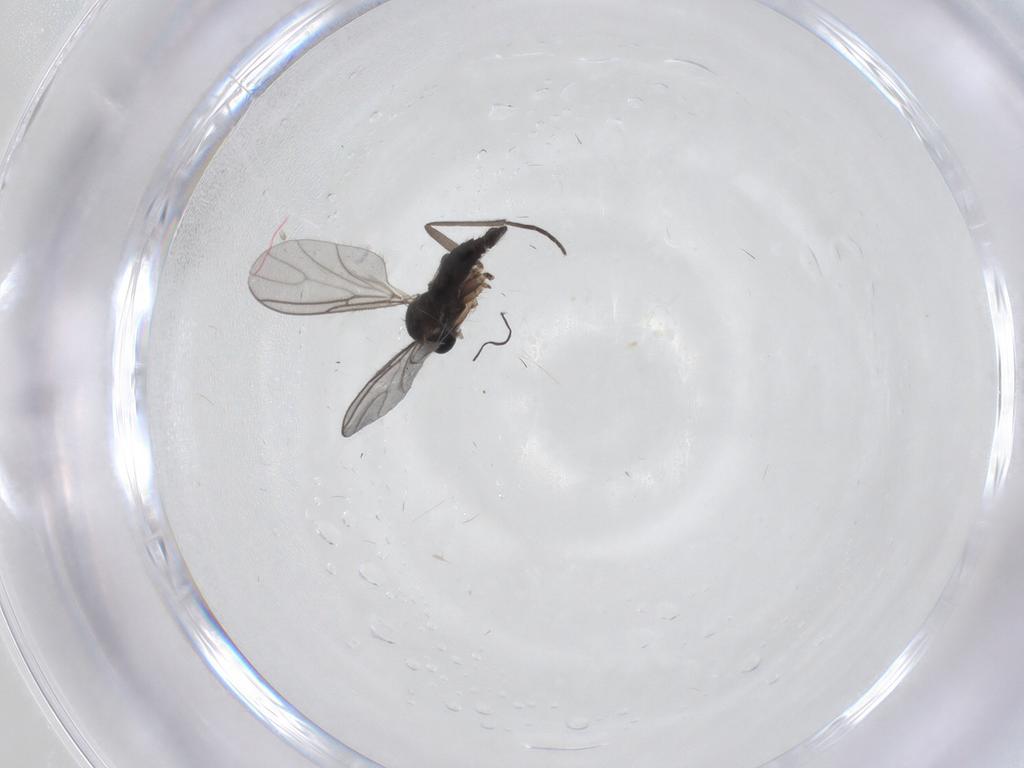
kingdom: Animalia
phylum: Arthropoda
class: Insecta
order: Diptera
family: Sciaridae
